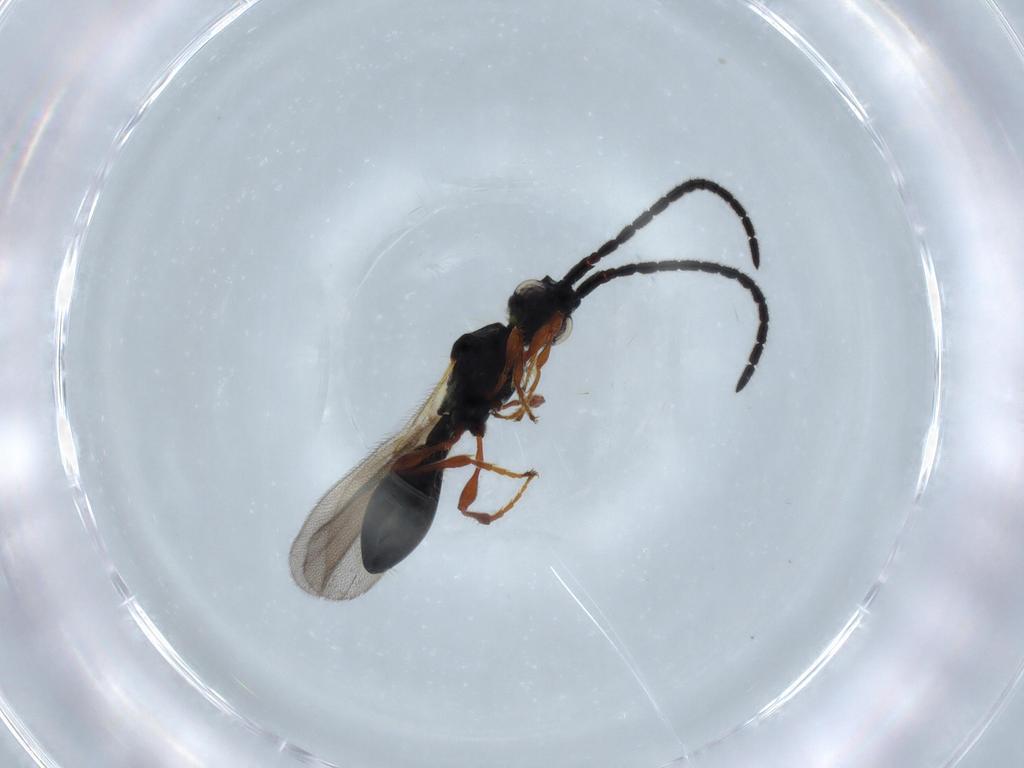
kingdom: Animalia
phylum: Arthropoda
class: Insecta
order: Hymenoptera
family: Diapriidae
